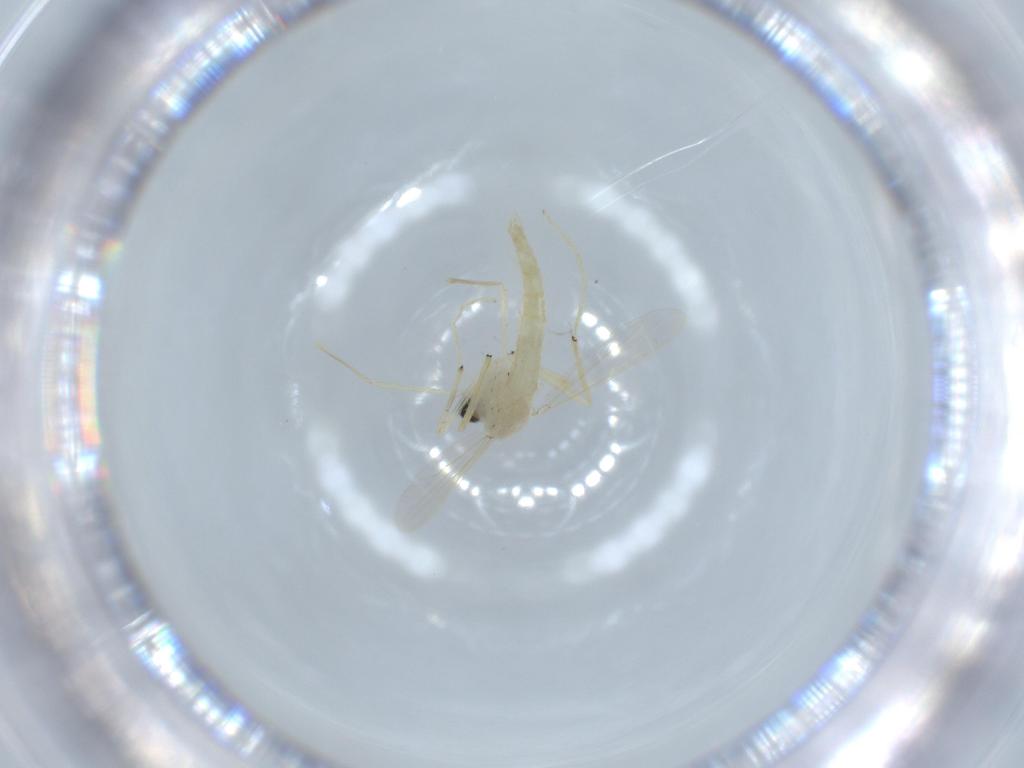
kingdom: Animalia
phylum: Arthropoda
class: Insecta
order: Diptera
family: Chironomidae
